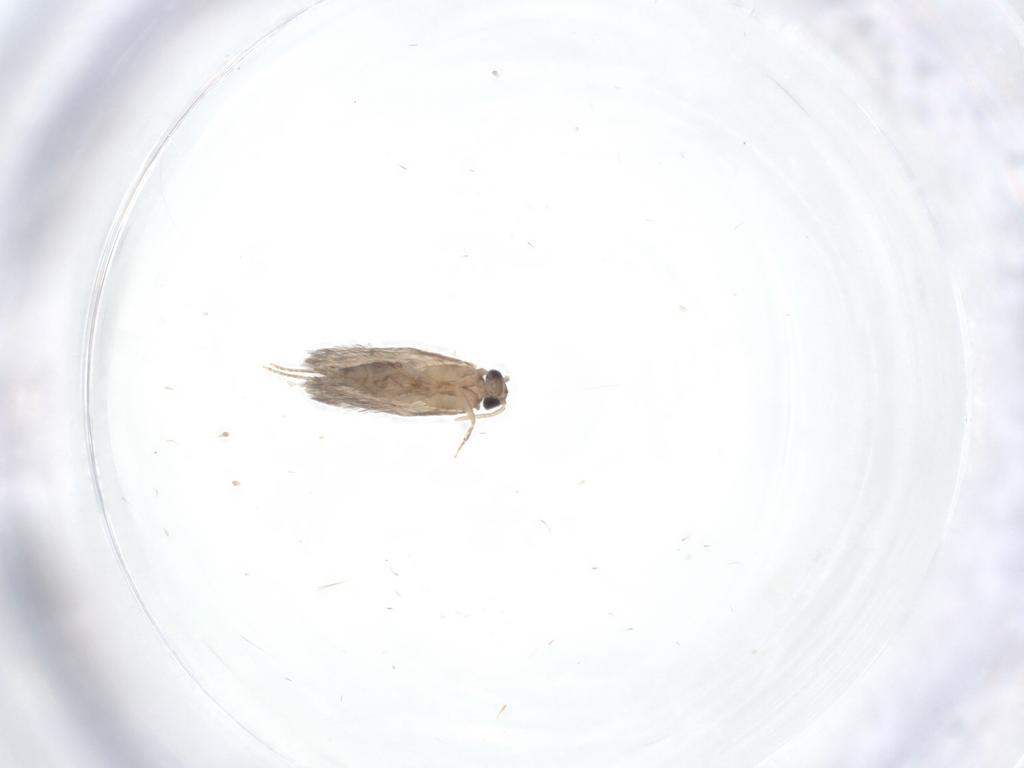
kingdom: Animalia
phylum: Arthropoda
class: Insecta
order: Trichoptera
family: Hydroptilidae
